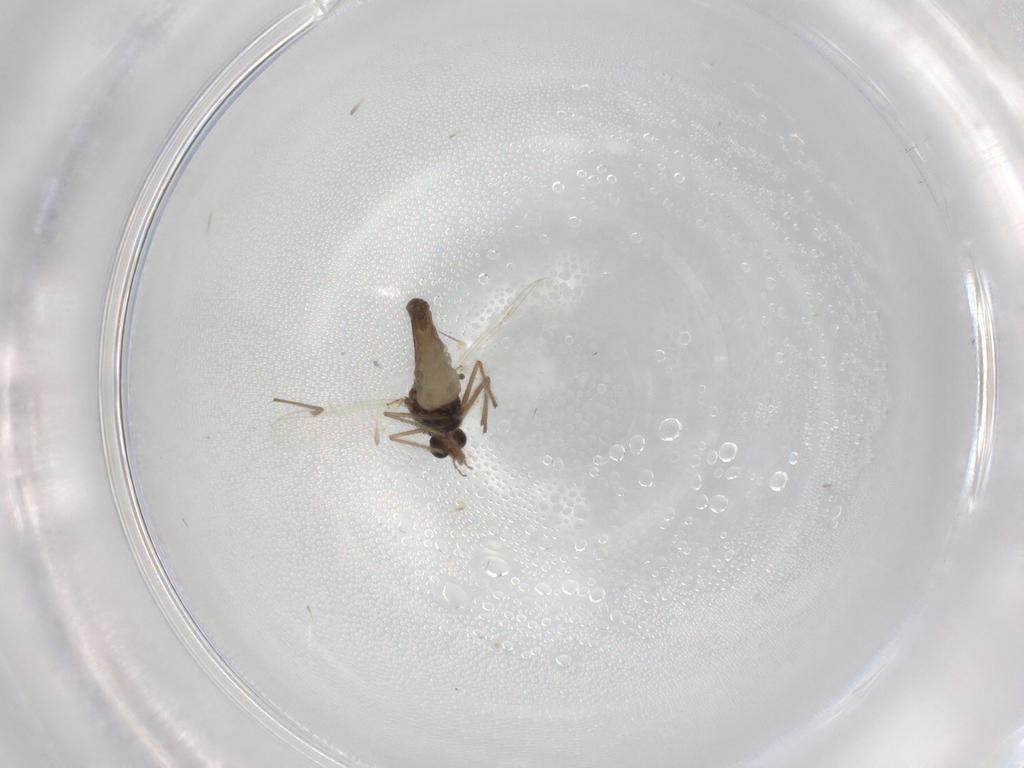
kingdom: Animalia
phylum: Arthropoda
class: Insecta
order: Diptera
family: Chironomidae
